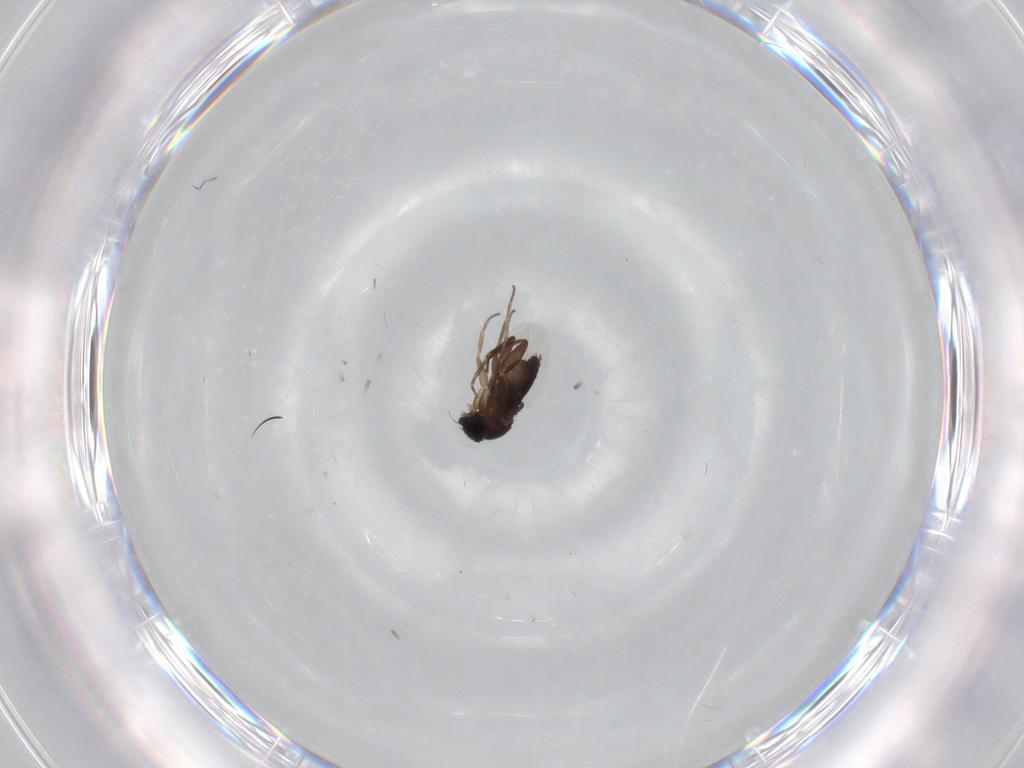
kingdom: Animalia
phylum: Arthropoda
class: Insecta
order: Diptera
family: Phoridae
